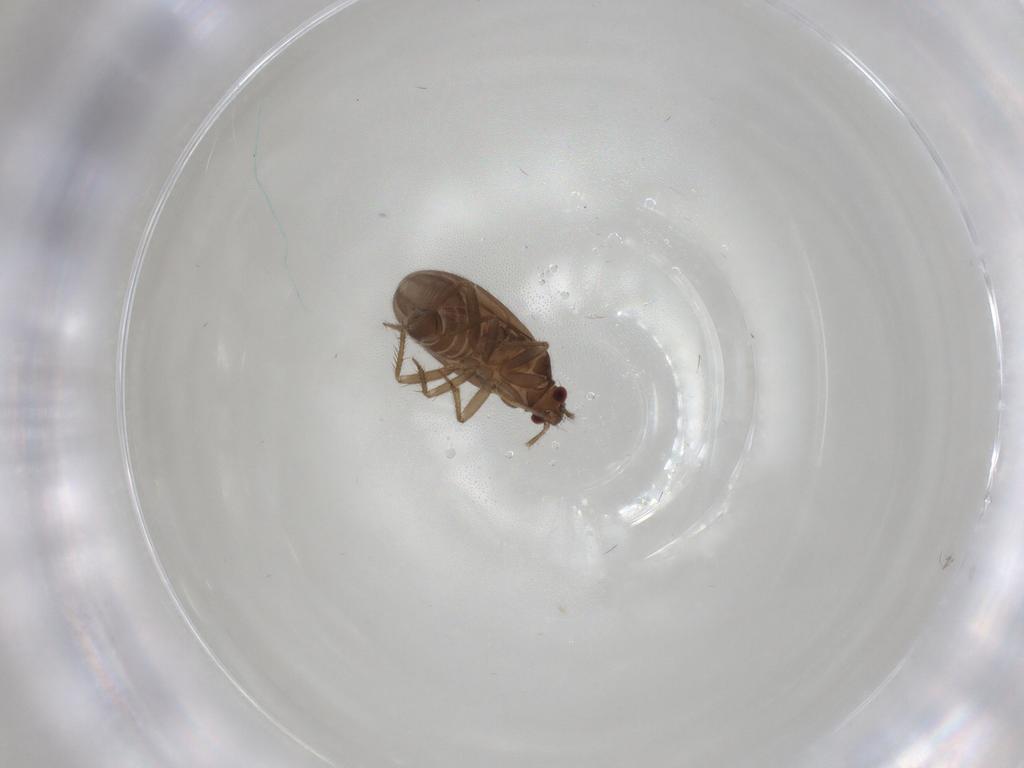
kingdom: Animalia
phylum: Arthropoda
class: Insecta
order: Hemiptera
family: Ceratocombidae
